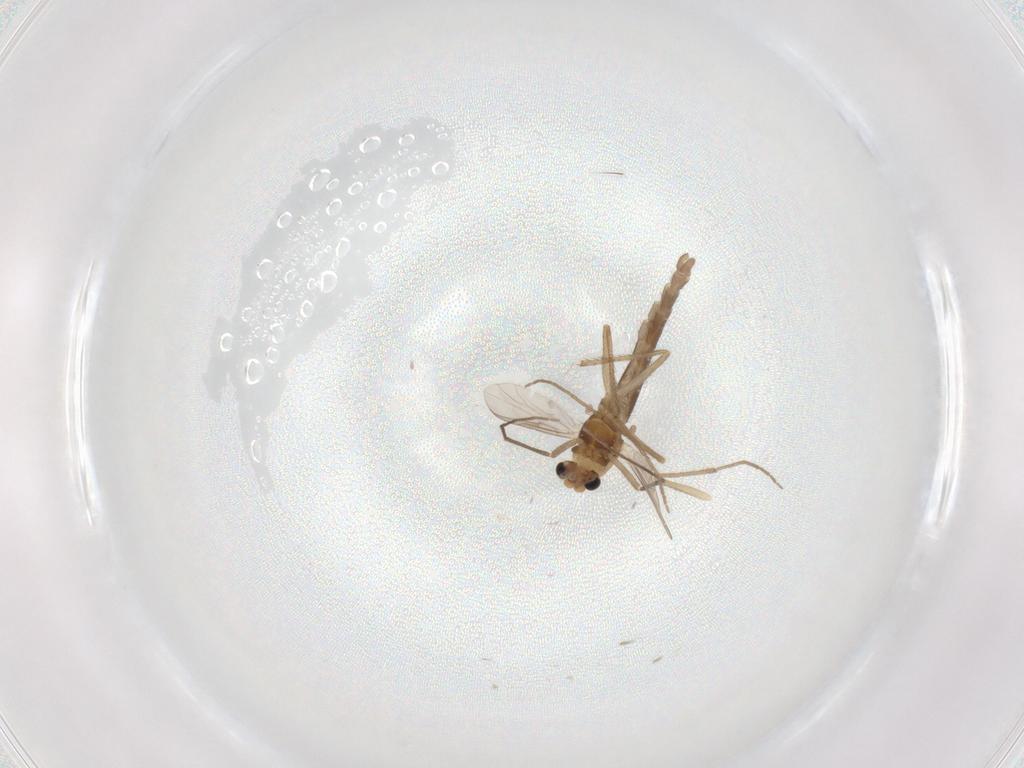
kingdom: Animalia
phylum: Arthropoda
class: Insecta
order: Diptera
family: Chironomidae
